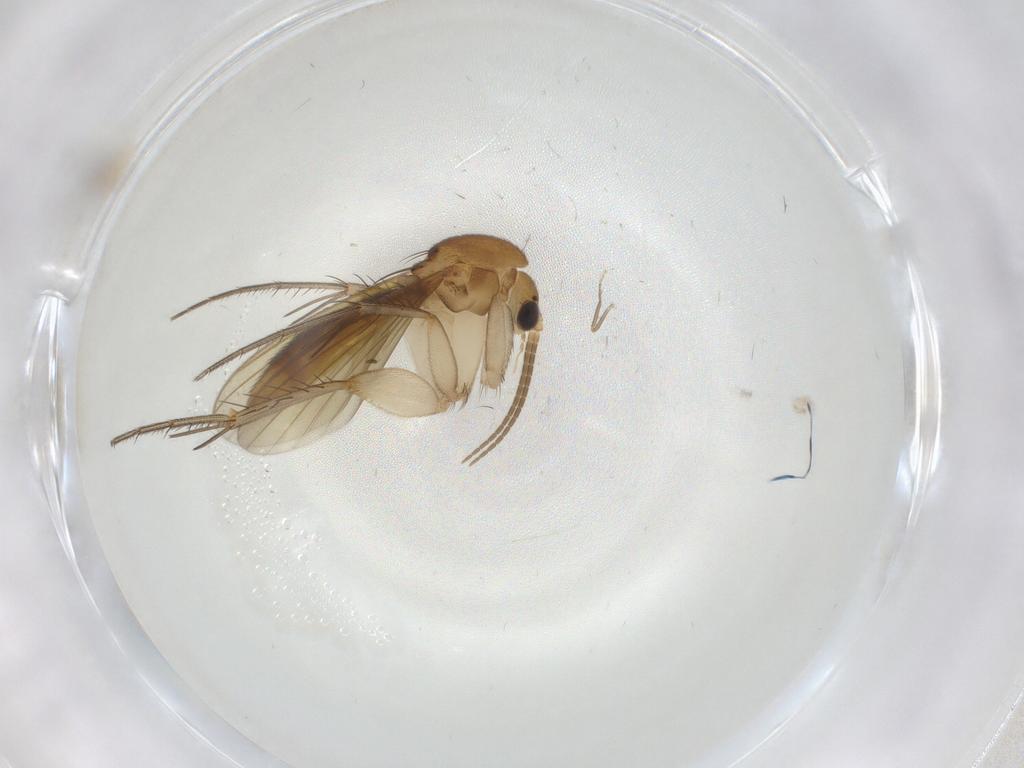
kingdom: Animalia
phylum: Arthropoda
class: Insecta
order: Diptera
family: Mycetophilidae
